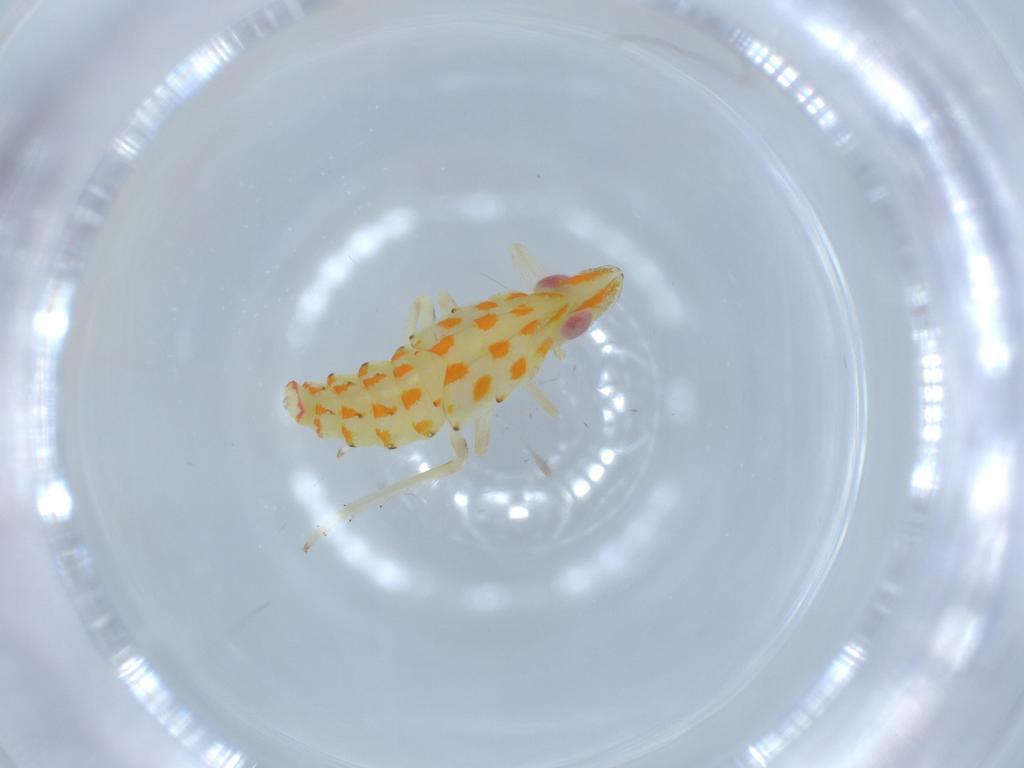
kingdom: Animalia
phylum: Arthropoda
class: Insecta
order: Hemiptera
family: Tropiduchidae
